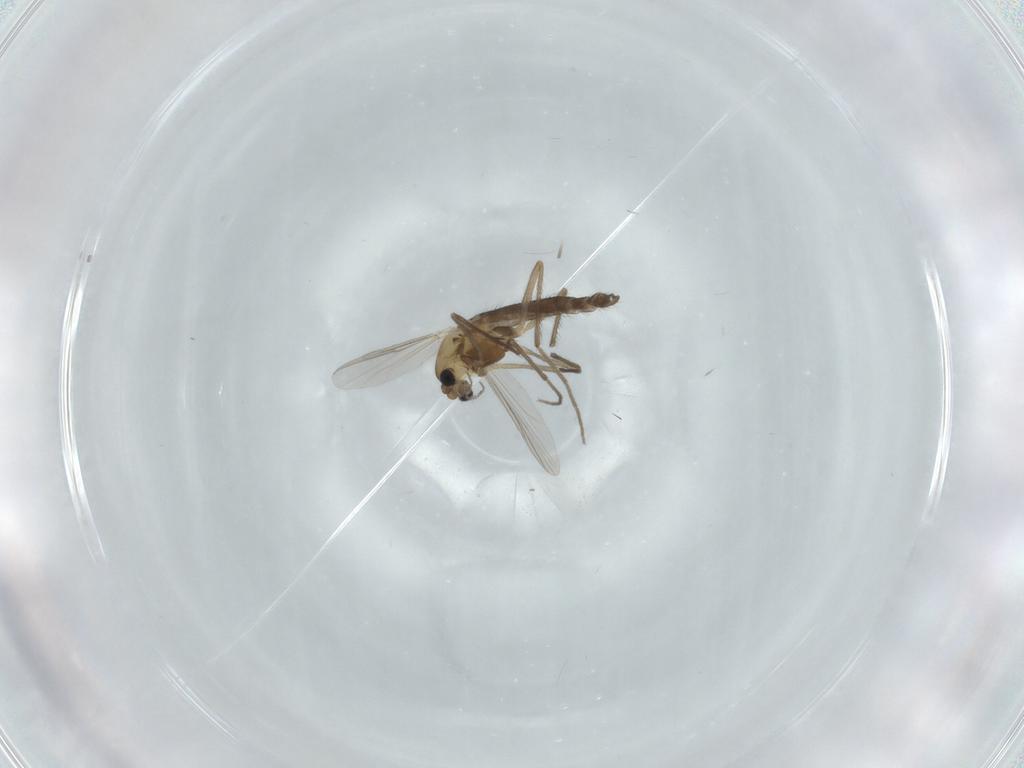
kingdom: Animalia
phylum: Arthropoda
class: Insecta
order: Diptera
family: Chironomidae
